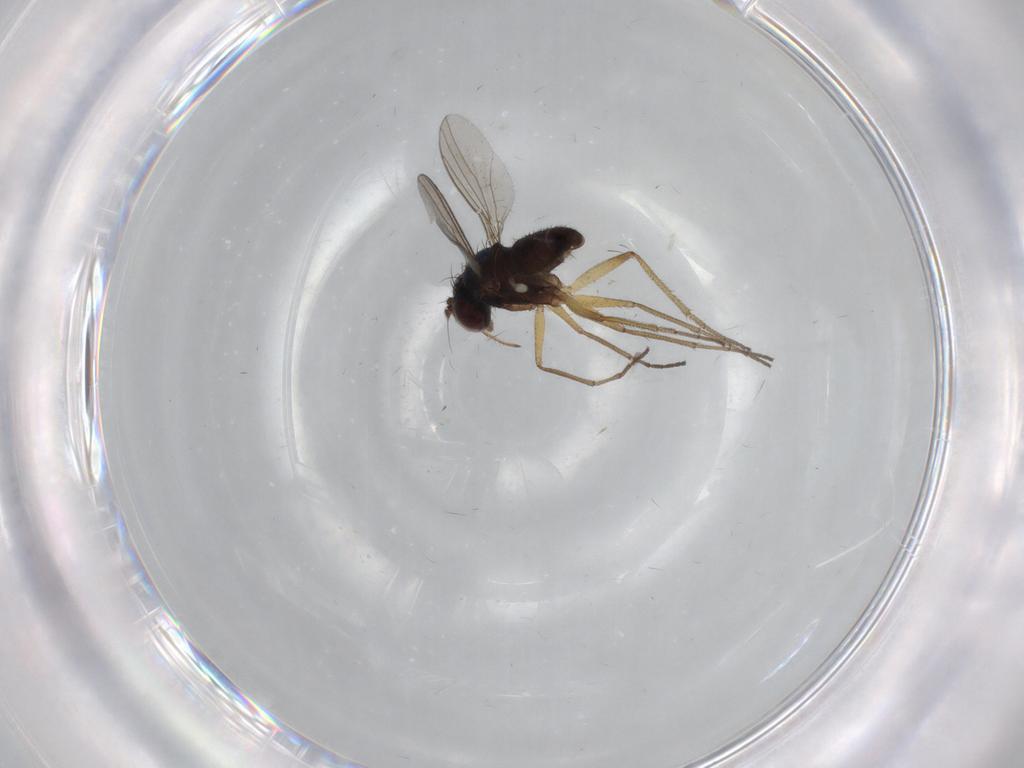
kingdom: Animalia
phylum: Arthropoda
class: Insecta
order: Diptera
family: Dolichopodidae
